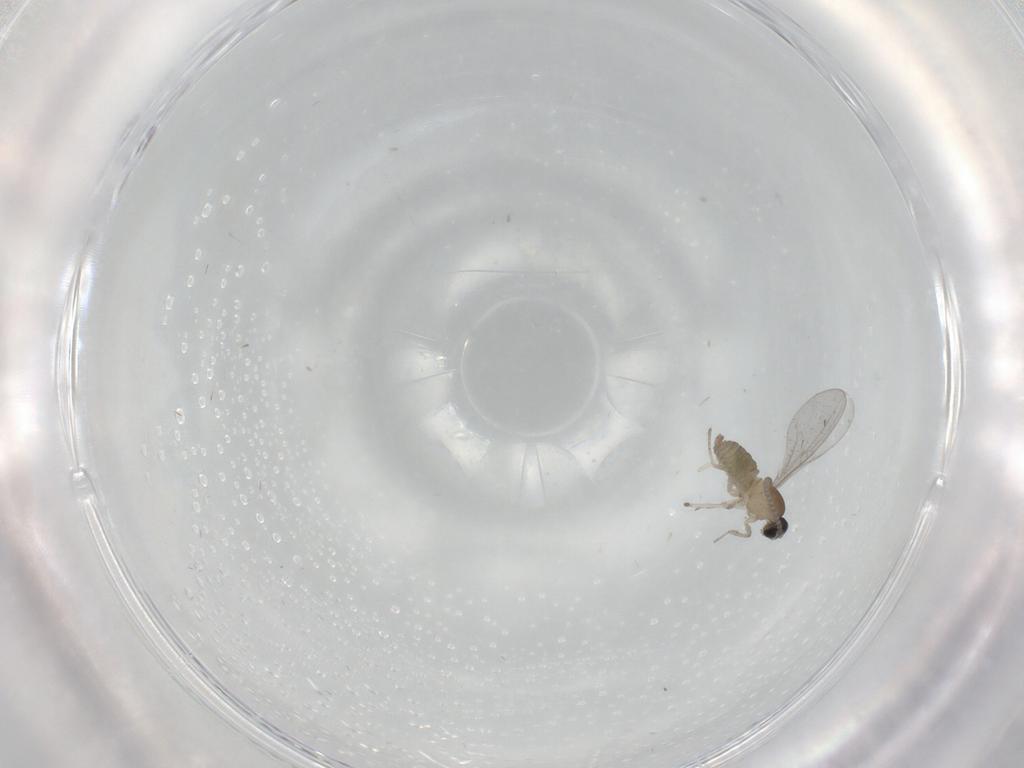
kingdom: Animalia
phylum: Arthropoda
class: Insecta
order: Diptera
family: Cecidomyiidae
